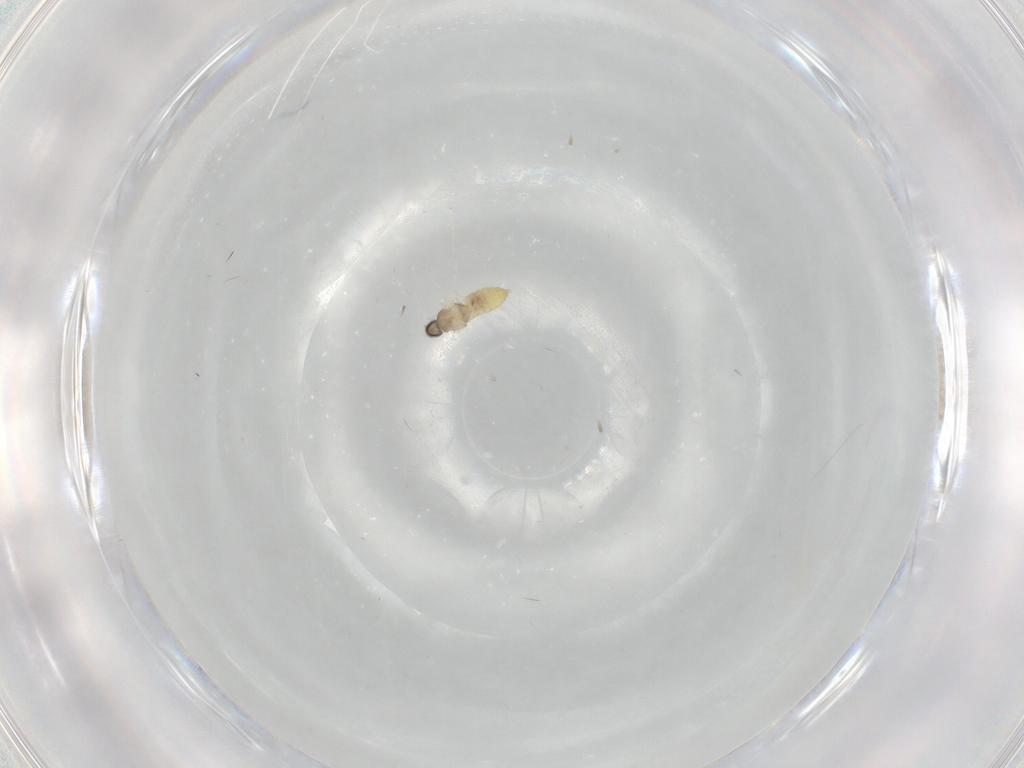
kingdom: Animalia
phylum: Arthropoda
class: Insecta
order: Diptera
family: Cecidomyiidae
